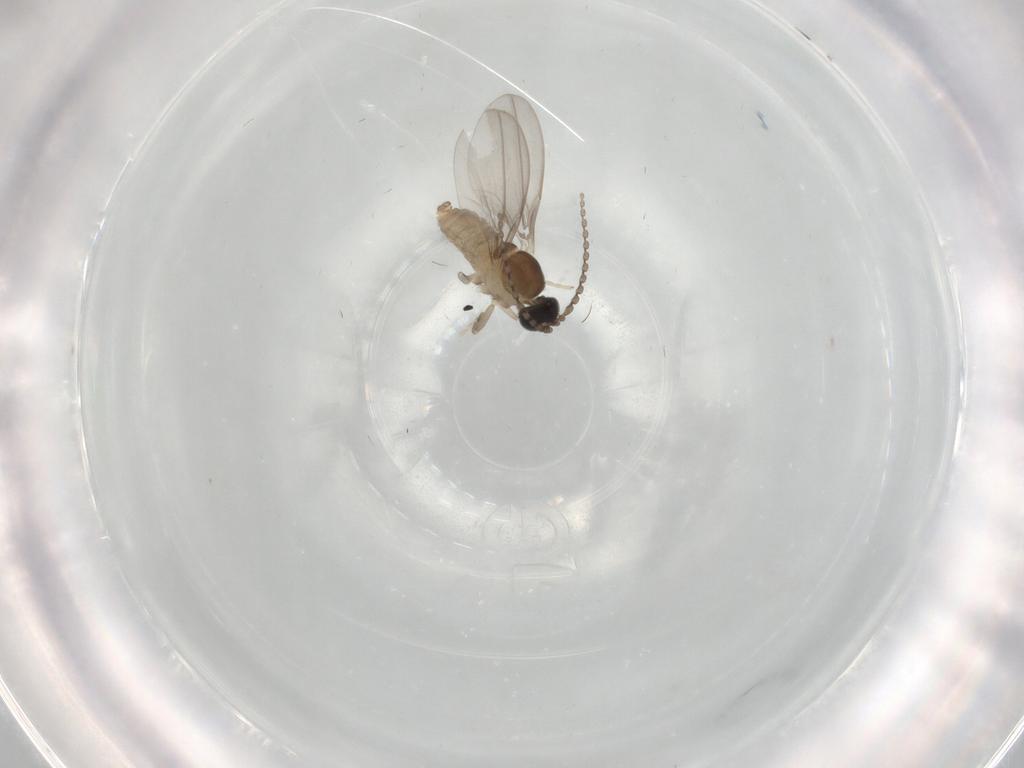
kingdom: Animalia
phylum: Arthropoda
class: Insecta
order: Diptera
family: Cecidomyiidae
